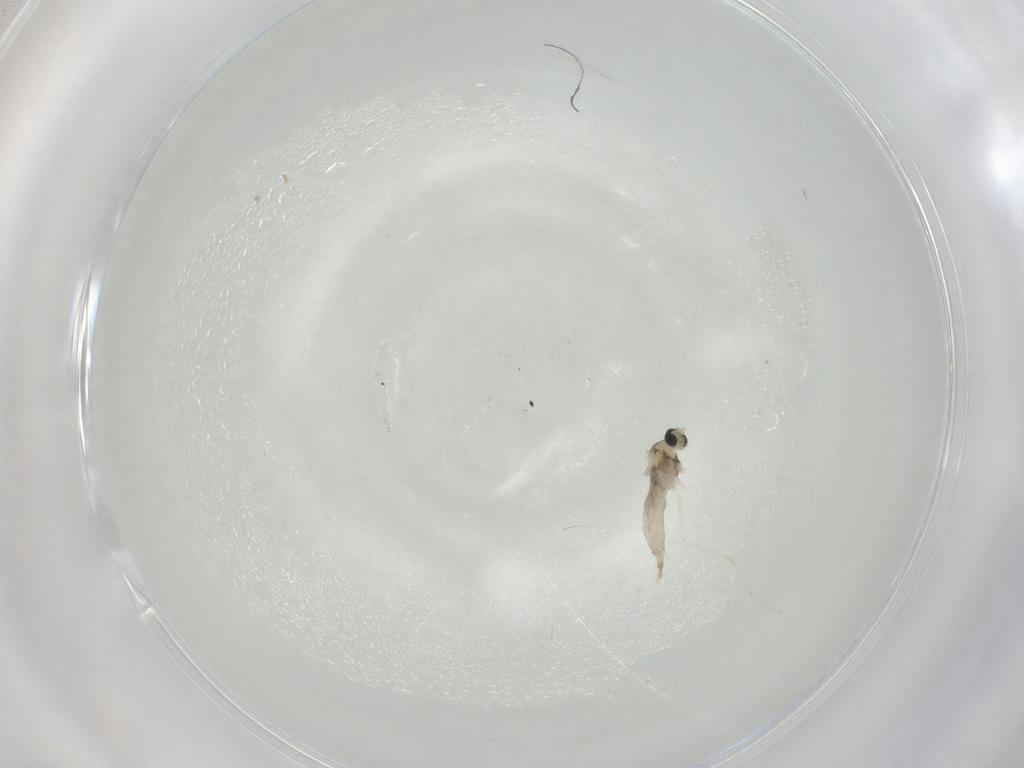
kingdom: Animalia
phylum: Arthropoda
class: Insecta
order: Diptera
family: Cecidomyiidae
